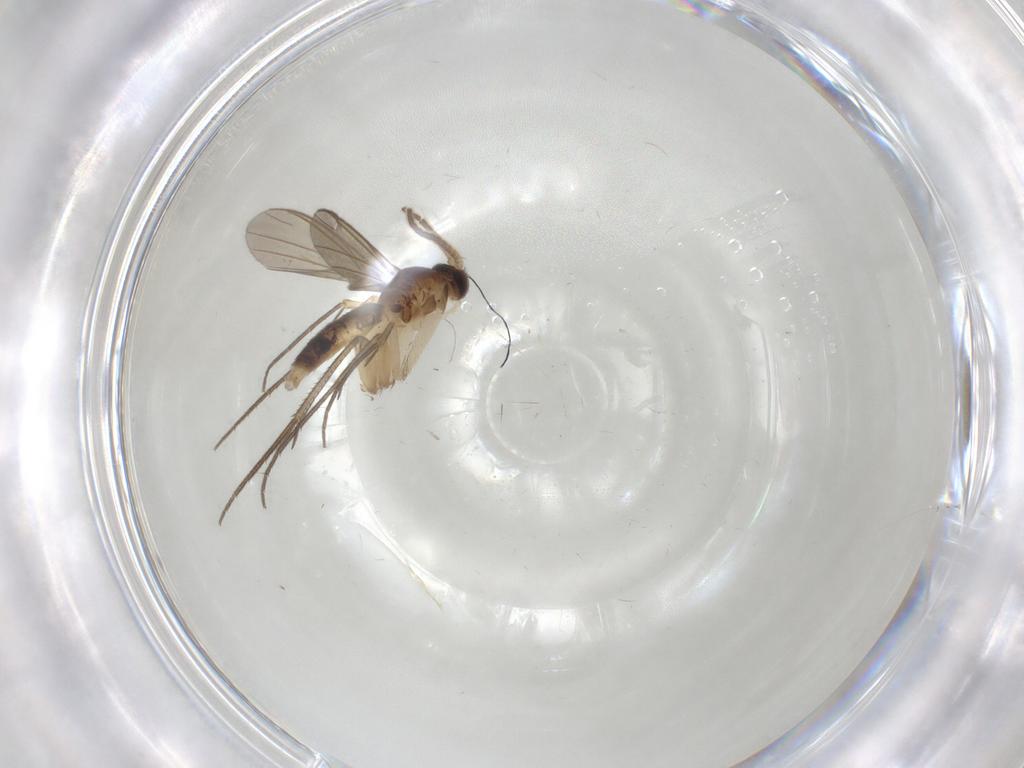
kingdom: Animalia
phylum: Arthropoda
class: Insecta
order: Diptera
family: Mycetophilidae
